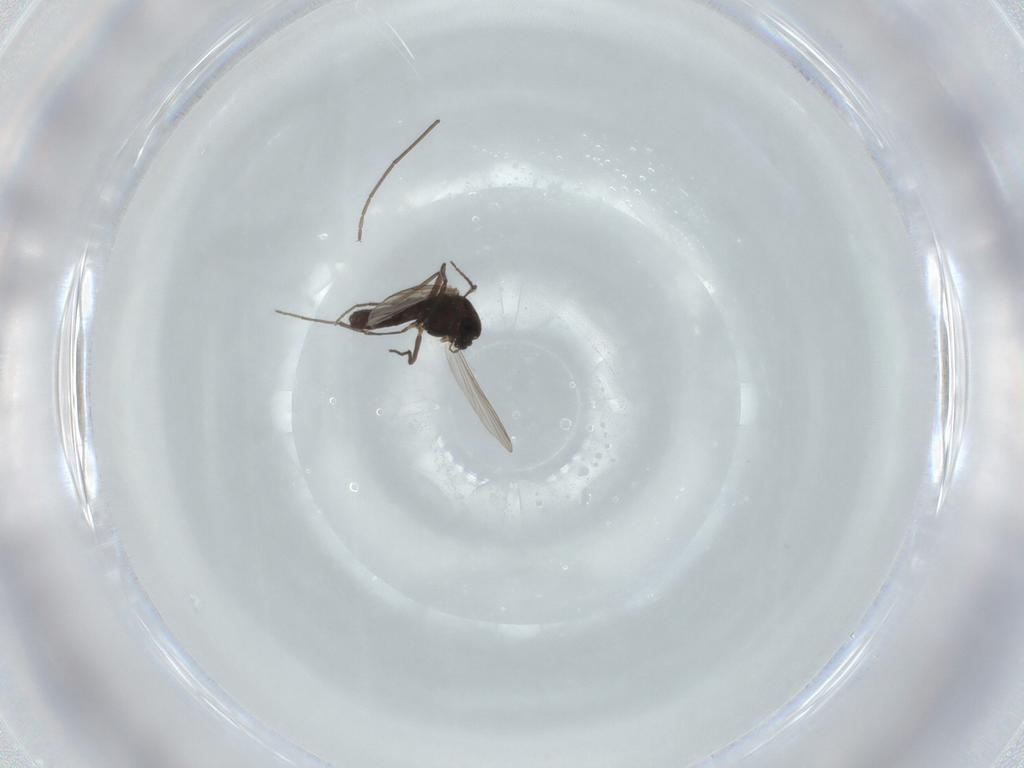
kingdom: Animalia
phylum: Arthropoda
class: Insecta
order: Diptera
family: Chironomidae
